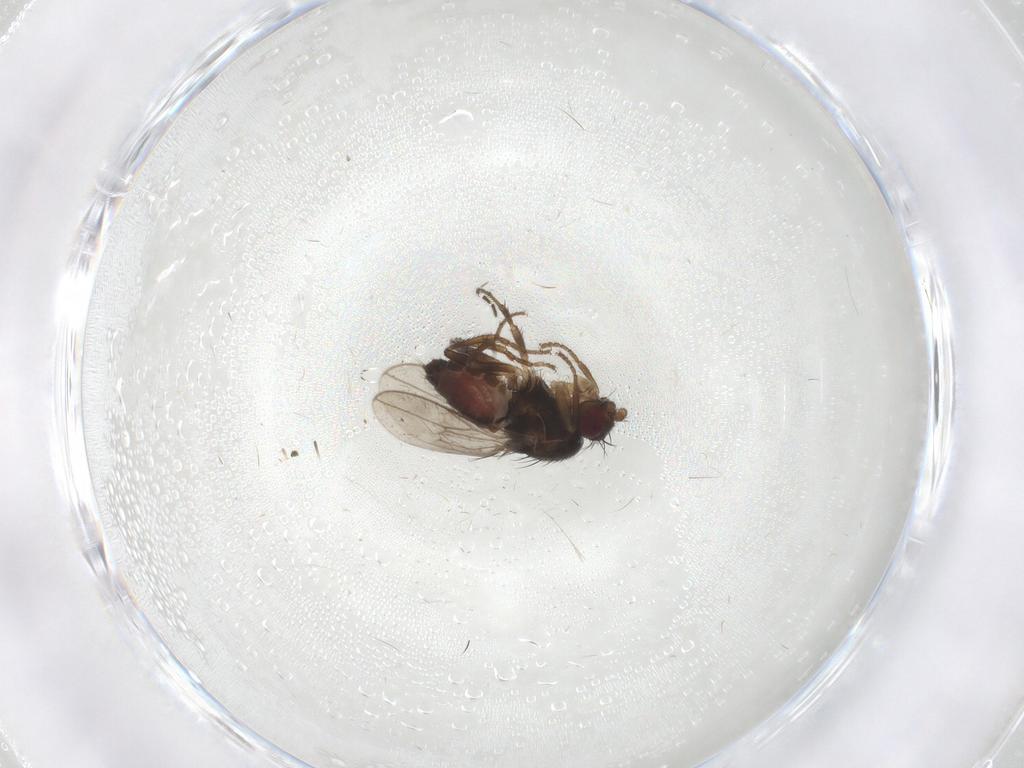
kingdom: Animalia
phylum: Arthropoda
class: Insecta
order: Diptera
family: Sphaeroceridae
